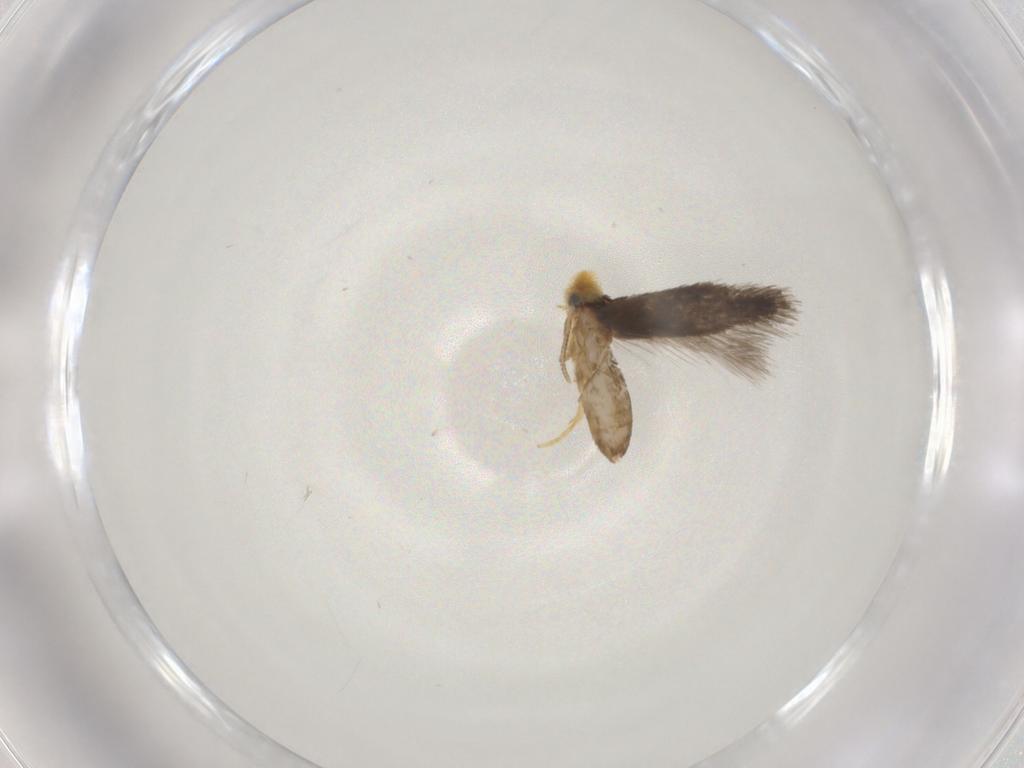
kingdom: Animalia
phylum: Arthropoda
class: Insecta
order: Lepidoptera
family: Nepticulidae
